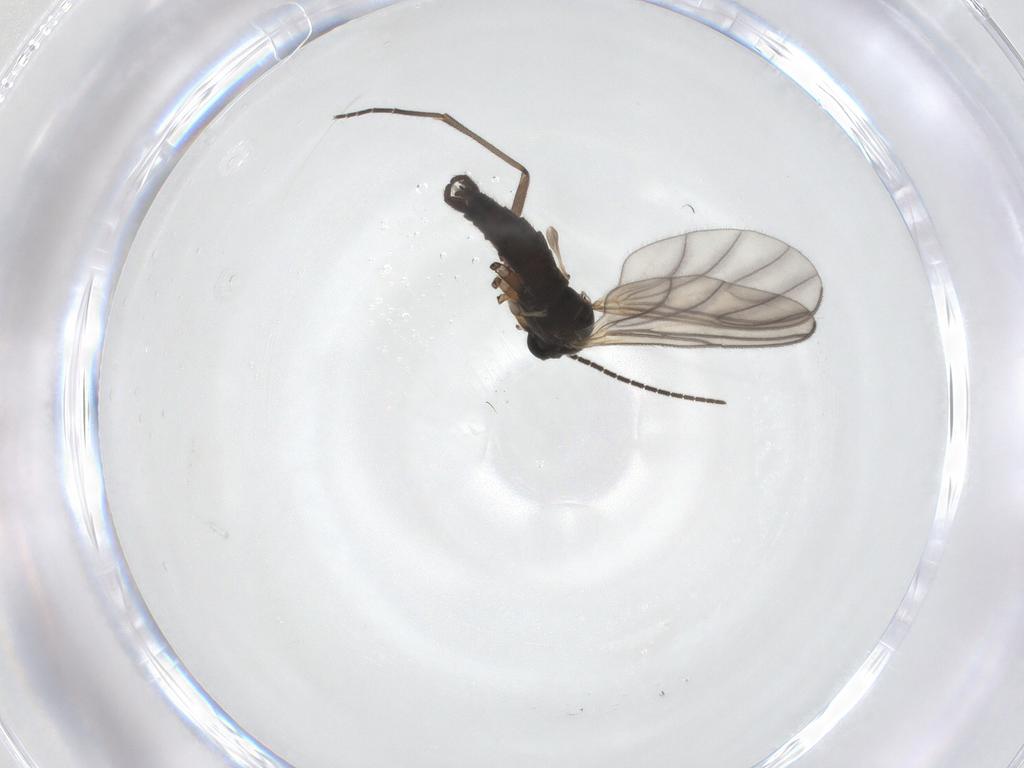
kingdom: Animalia
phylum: Arthropoda
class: Insecta
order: Diptera
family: Sciaridae
